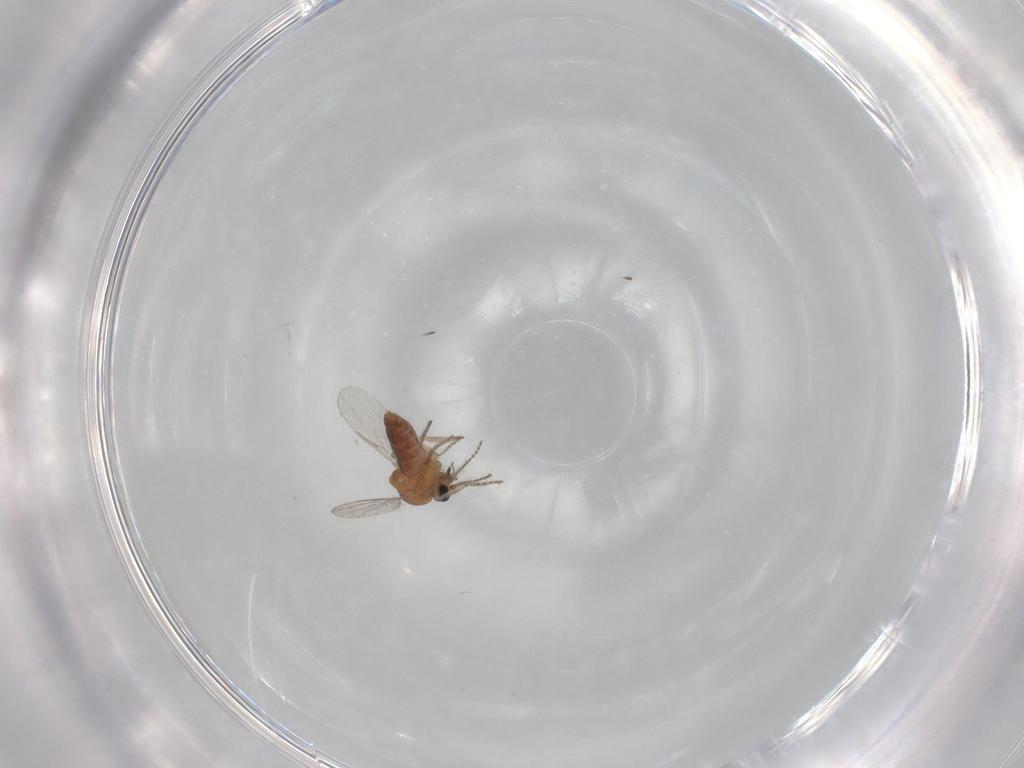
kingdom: Animalia
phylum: Arthropoda
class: Insecta
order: Diptera
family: Ceratopogonidae
